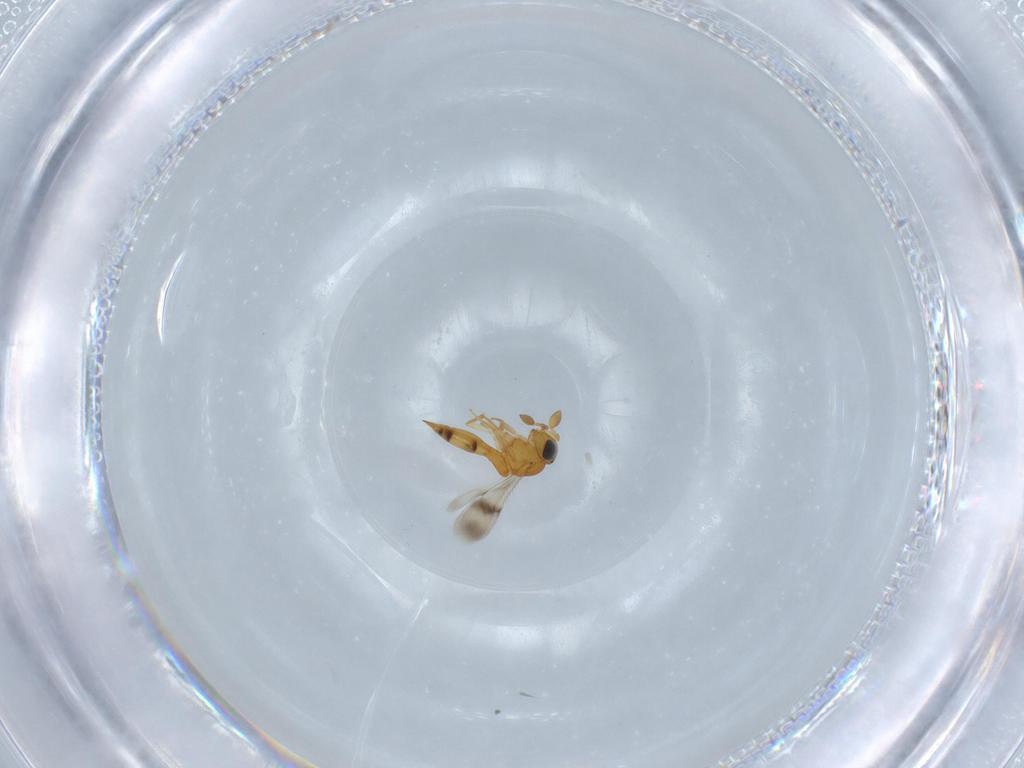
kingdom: Animalia
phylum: Arthropoda
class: Insecta
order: Hymenoptera
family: Scelionidae
